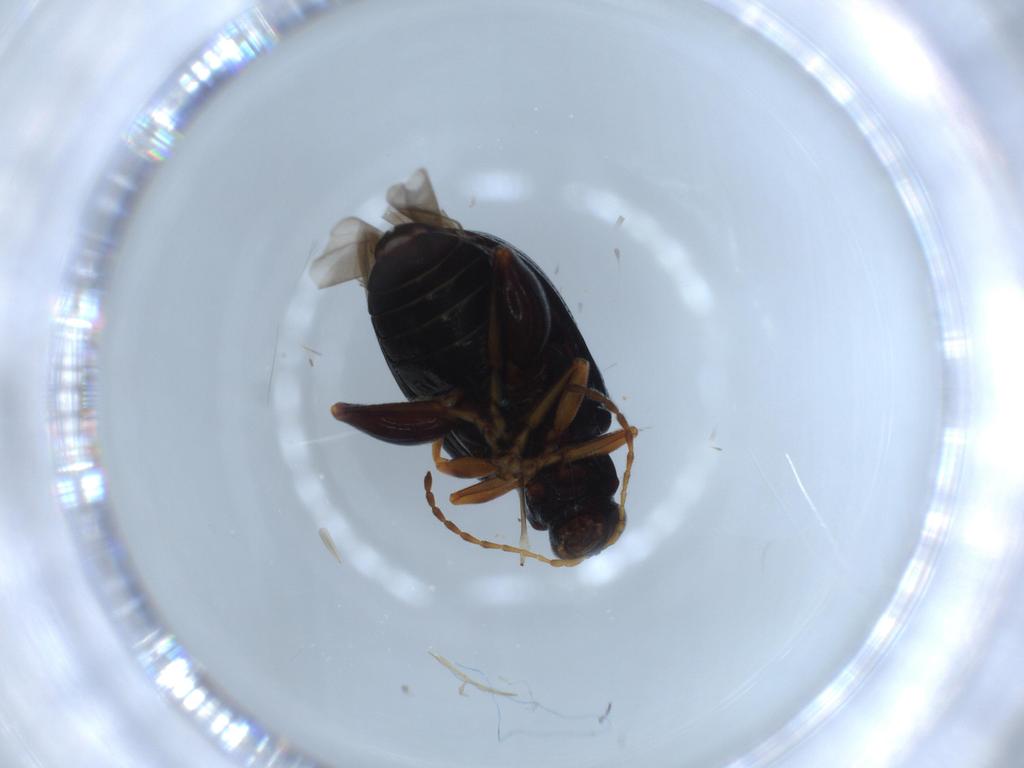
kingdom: Animalia
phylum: Arthropoda
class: Insecta
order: Coleoptera
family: Chrysomelidae
